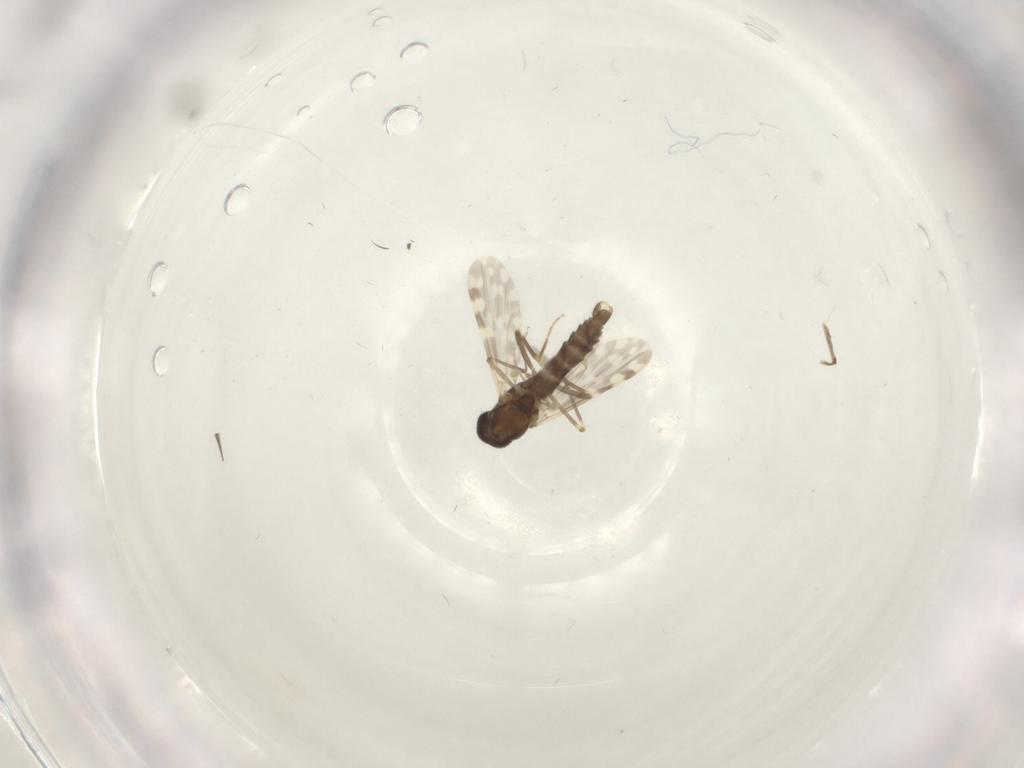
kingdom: Animalia
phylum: Arthropoda
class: Insecta
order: Diptera
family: Ceratopogonidae
